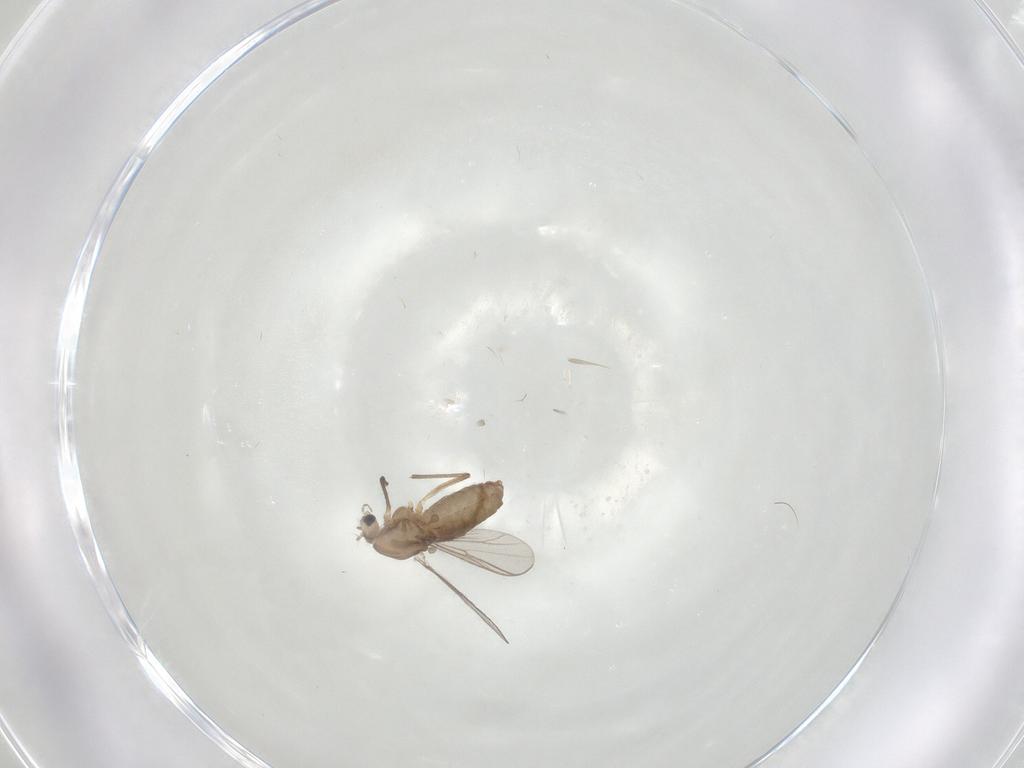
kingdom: Animalia
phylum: Arthropoda
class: Insecta
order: Diptera
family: Chironomidae
